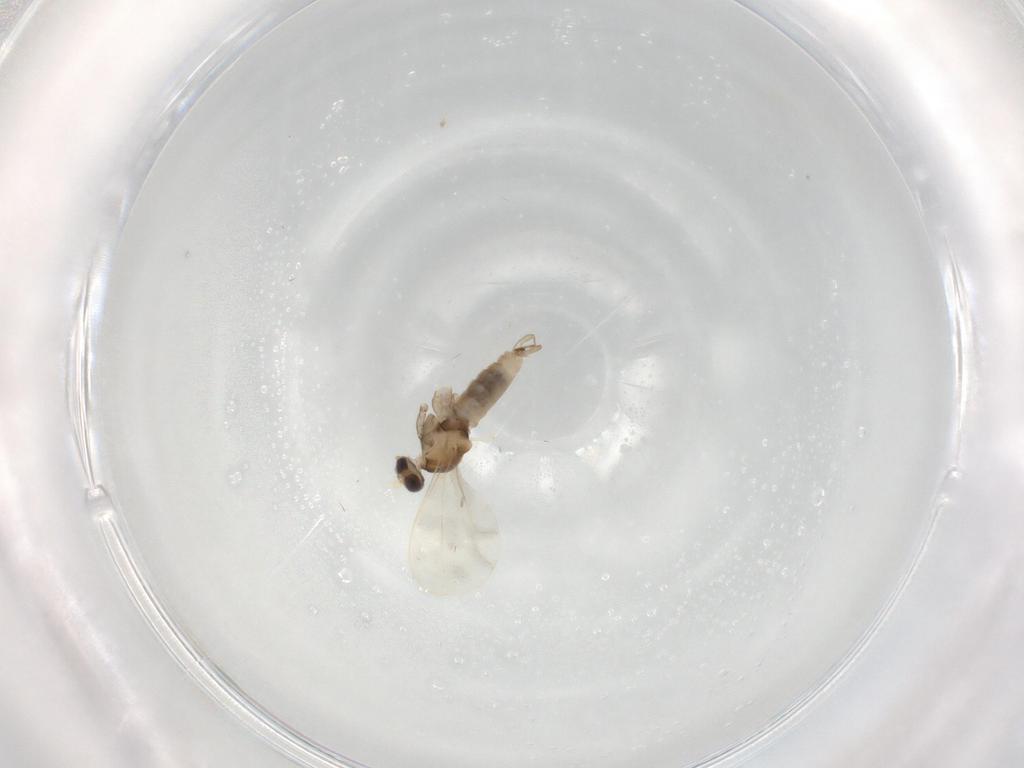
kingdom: Animalia
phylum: Arthropoda
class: Insecta
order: Diptera
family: Cecidomyiidae
